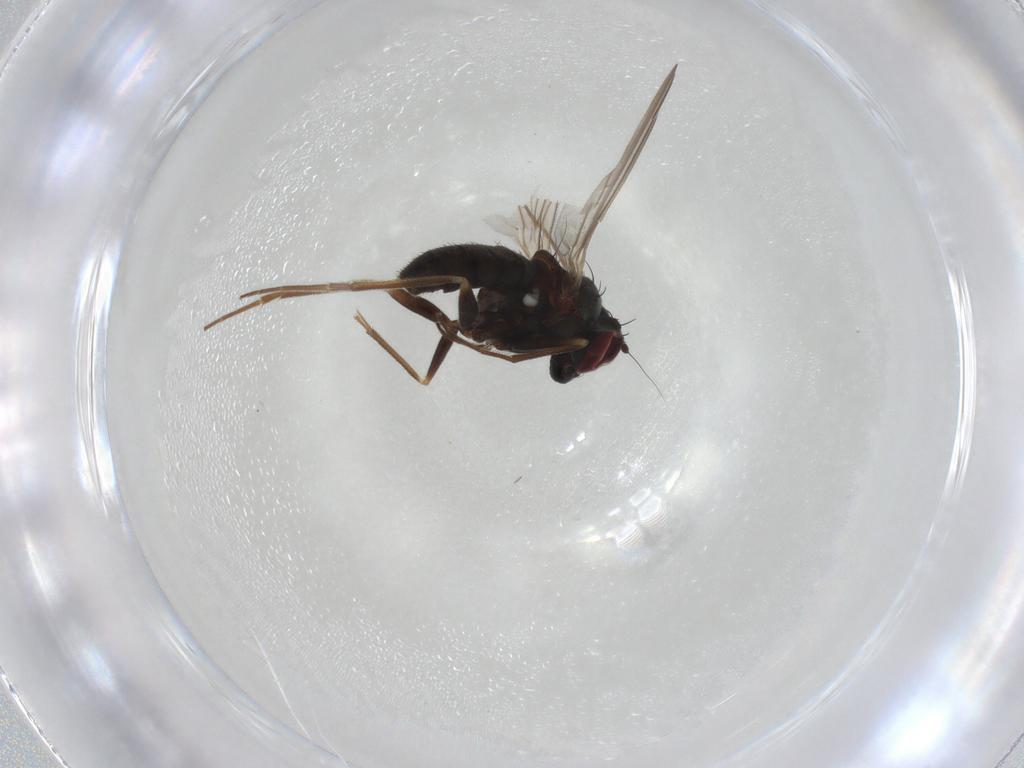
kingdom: Animalia
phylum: Arthropoda
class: Insecta
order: Diptera
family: Dolichopodidae
